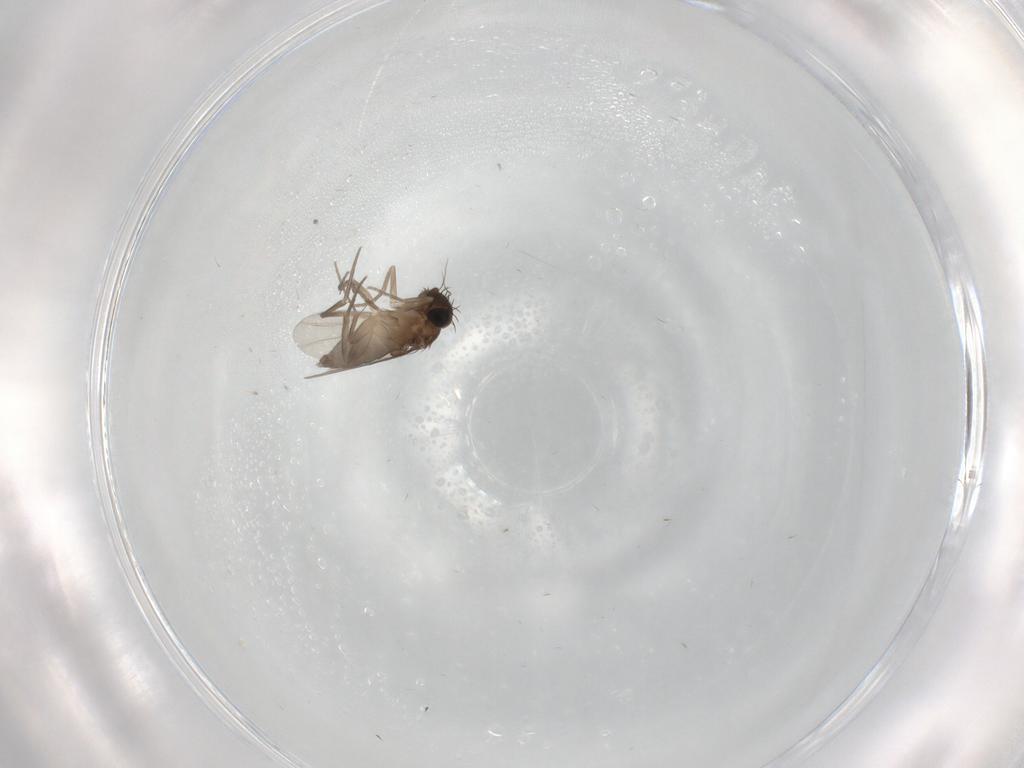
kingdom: Animalia
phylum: Arthropoda
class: Insecta
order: Diptera
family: Phoridae
